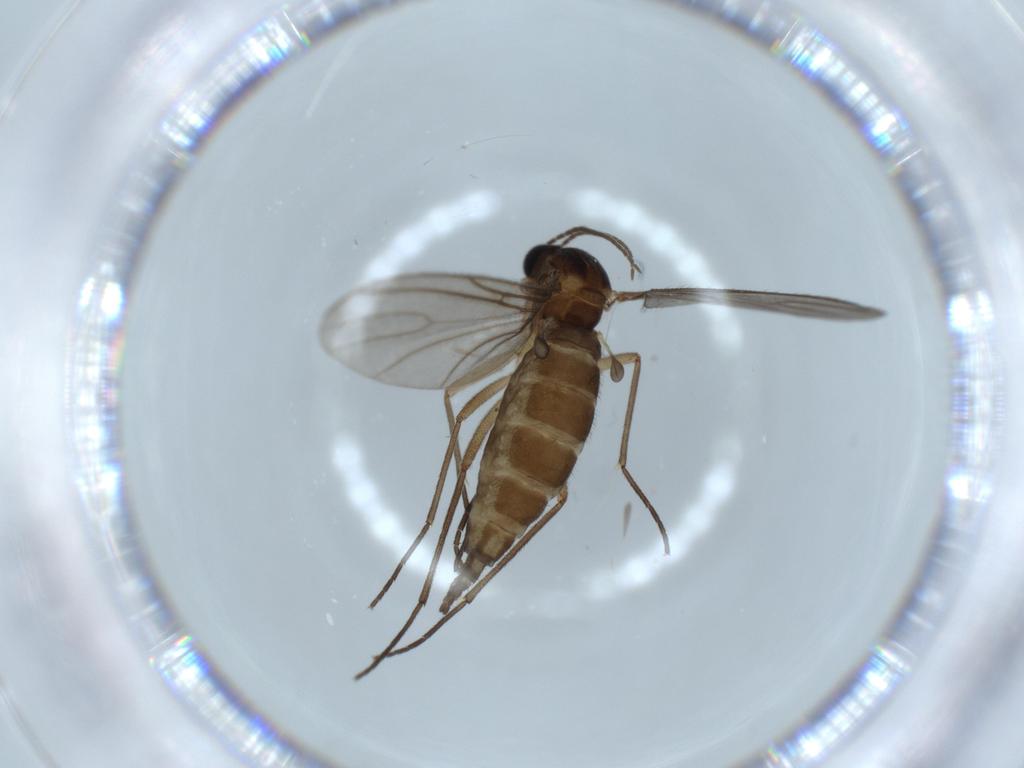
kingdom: Animalia
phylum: Arthropoda
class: Insecta
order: Diptera
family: Sciaridae
